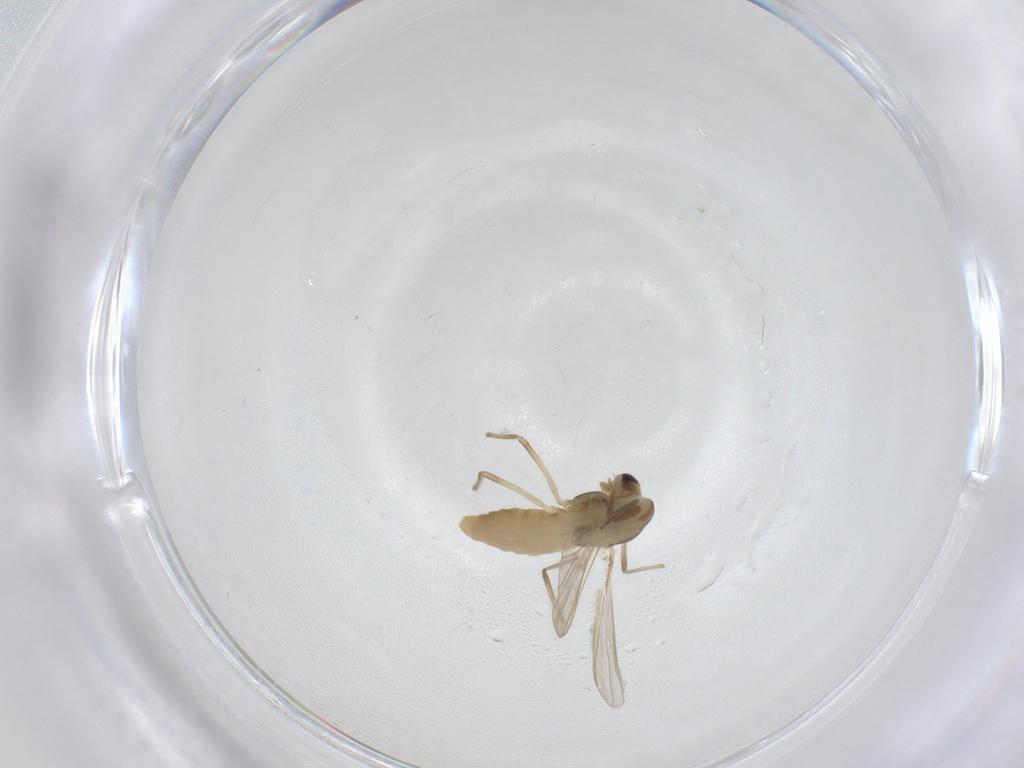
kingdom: Animalia
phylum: Arthropoda
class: Insecta
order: Diptera
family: Chironomidae
